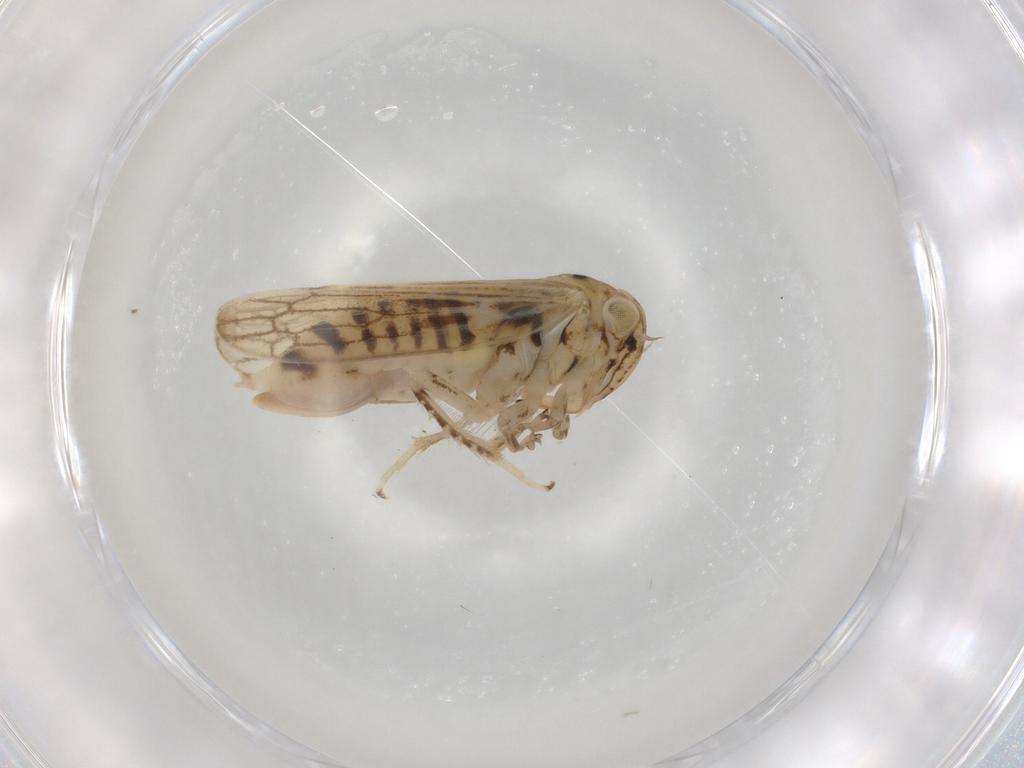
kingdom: Animalia
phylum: Arthropoda
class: Insecta
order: Hemiptera
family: Cicadellidae
